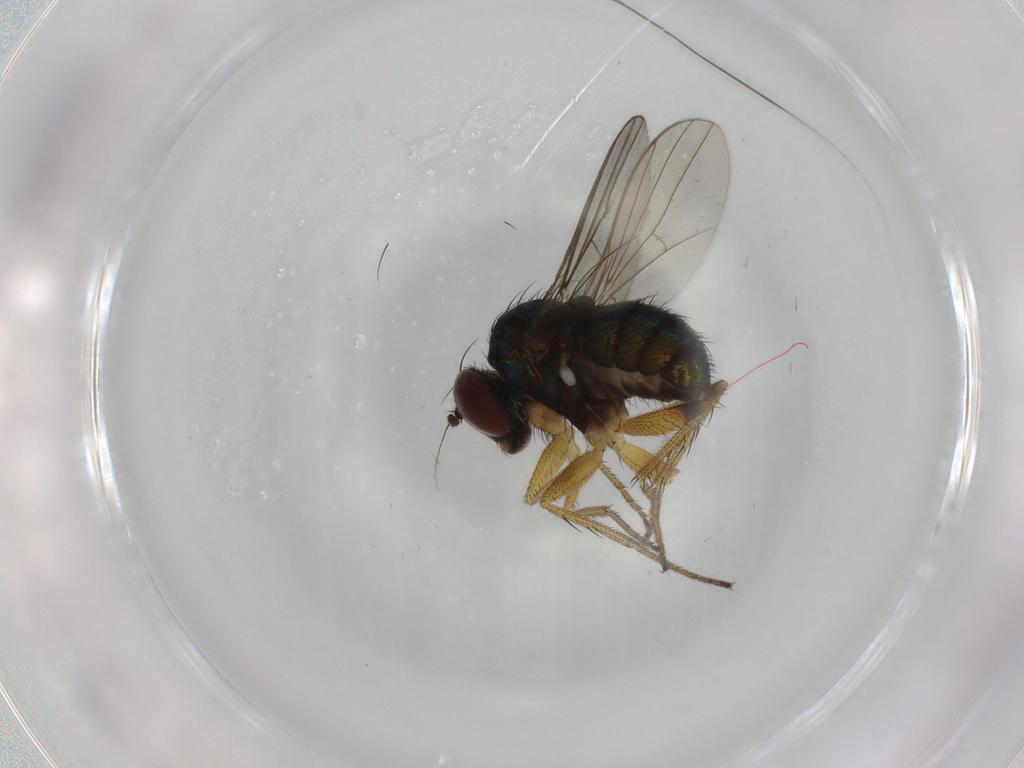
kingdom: Animalia
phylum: Arthropoda
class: Insecta
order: Diptera
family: Dolichopodidae
